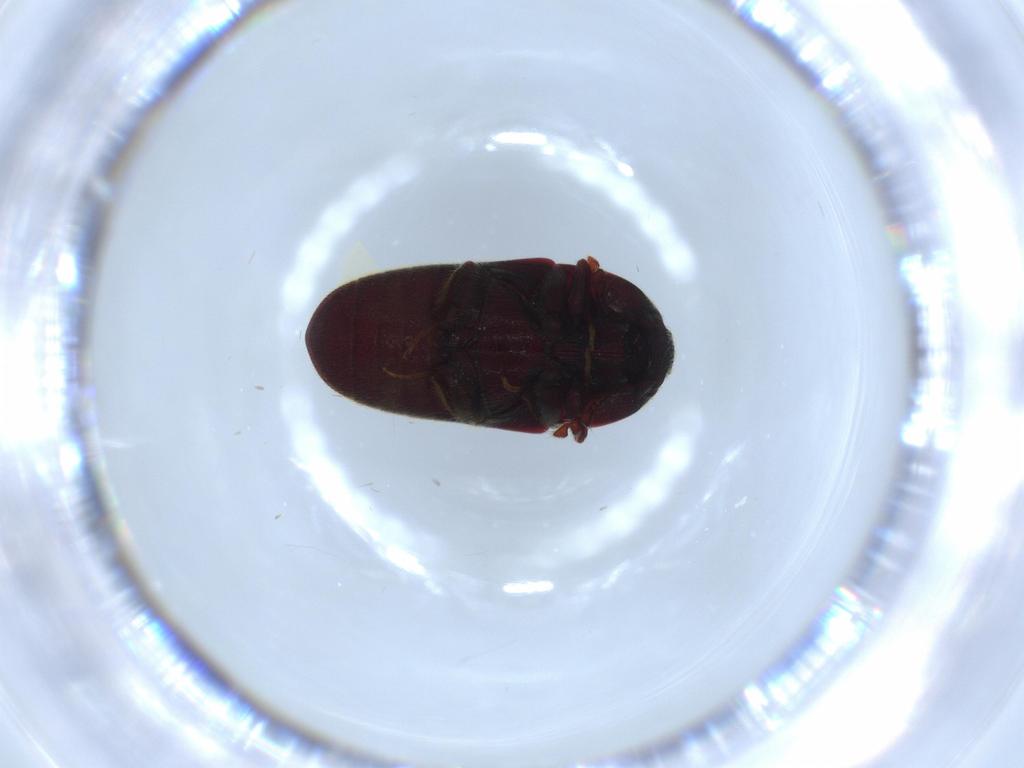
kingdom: Animalia
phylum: Arthropoda
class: Insecta
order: Coleoptera
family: Throscidae
